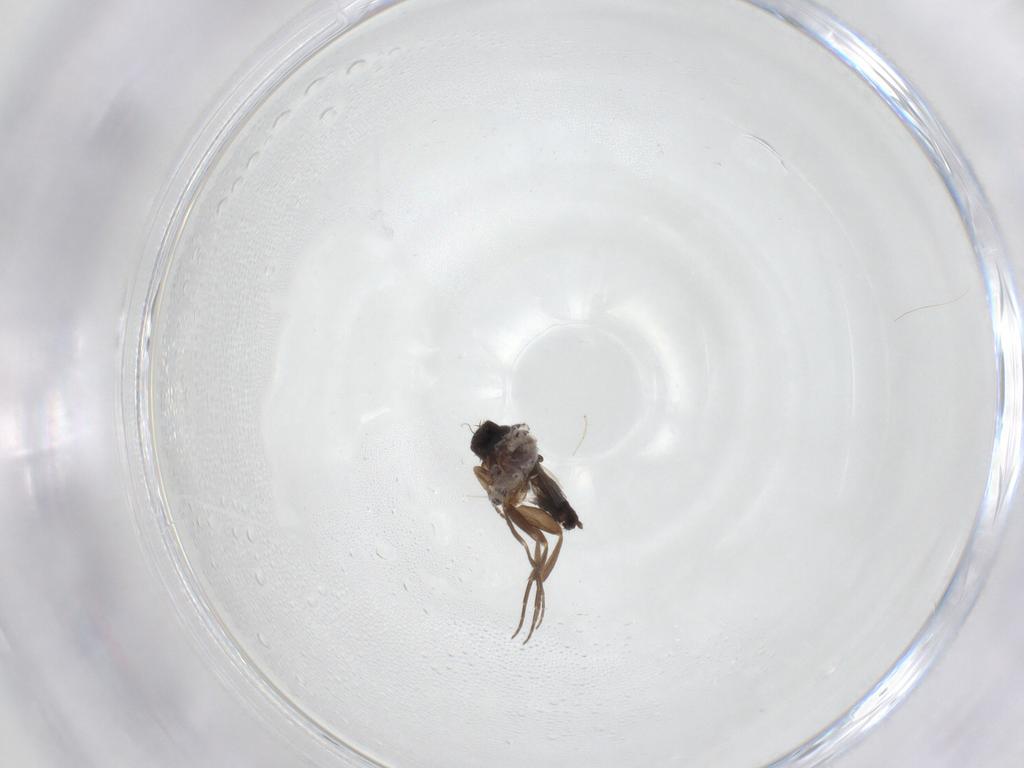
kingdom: Animalia
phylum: Arthropoda
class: Insecta
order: Diptera
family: Phoridae
